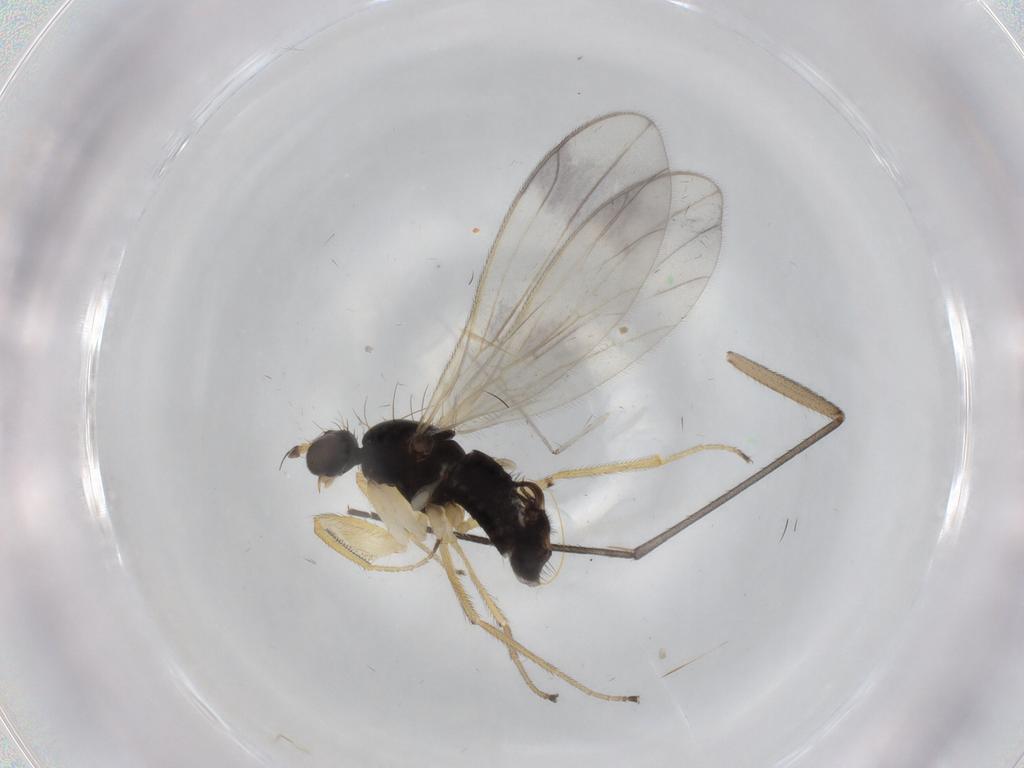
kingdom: Animalia
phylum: Arthropoda
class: Insecta
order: Diptera
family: Empididae
